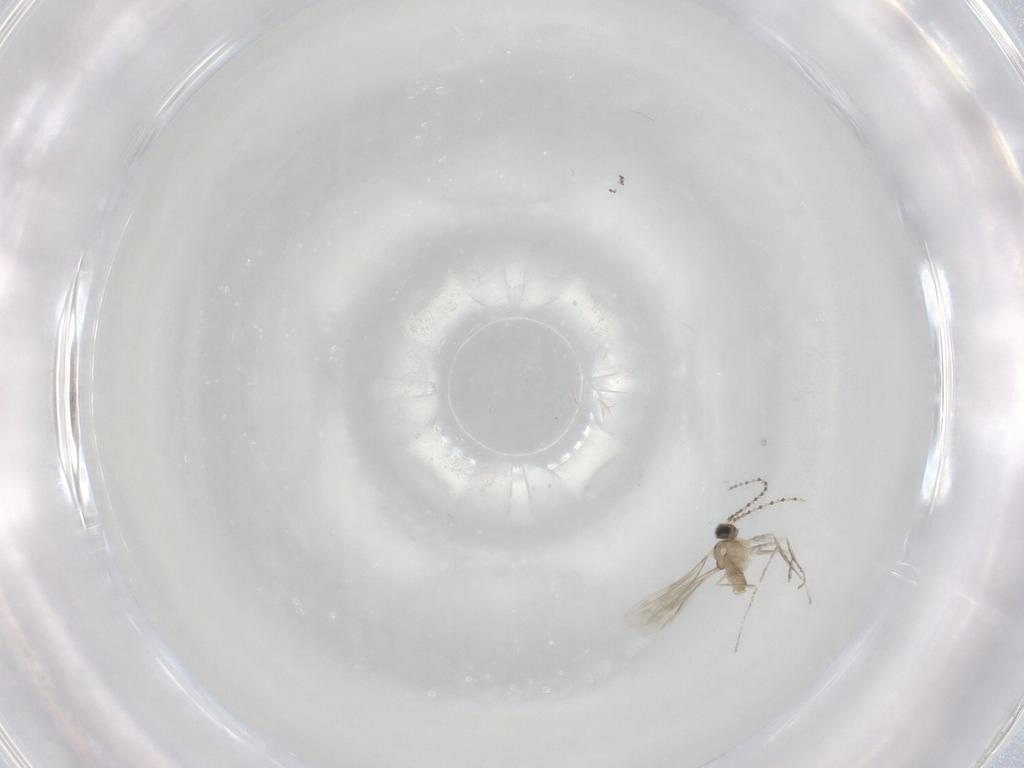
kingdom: Animalia
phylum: Arthropoda
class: Insecta
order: Diptera
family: Cecidomyiidae
